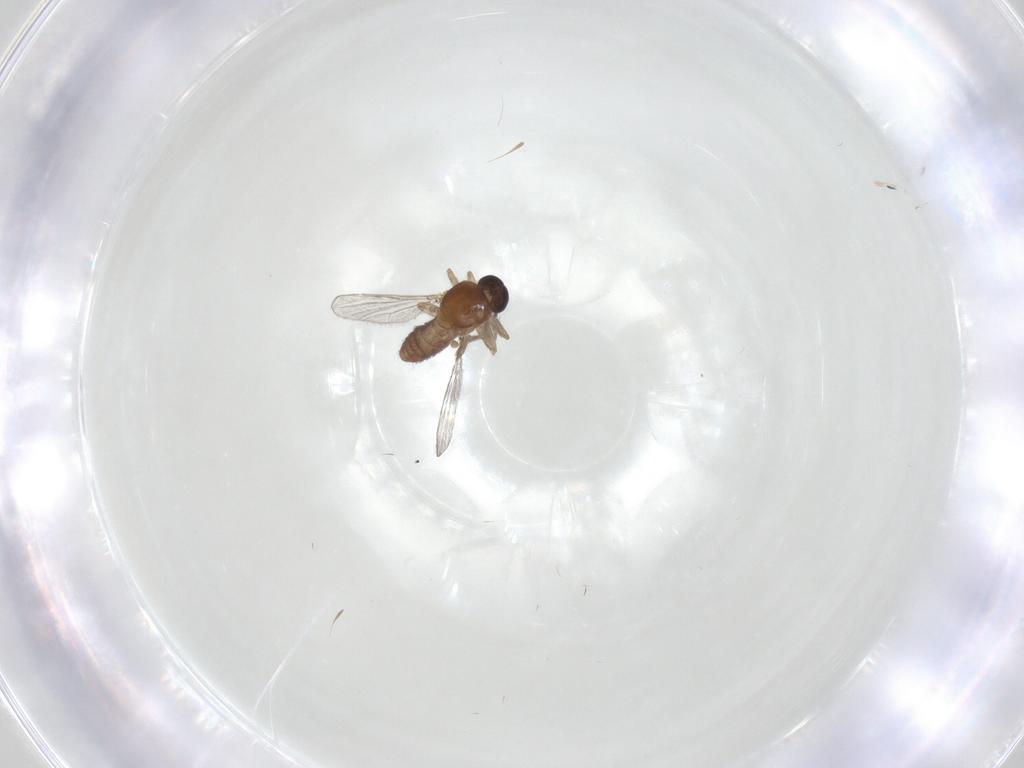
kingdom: Animalia
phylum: Arthropoda
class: Insecta
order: Diptera
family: Ceratopogonidae
